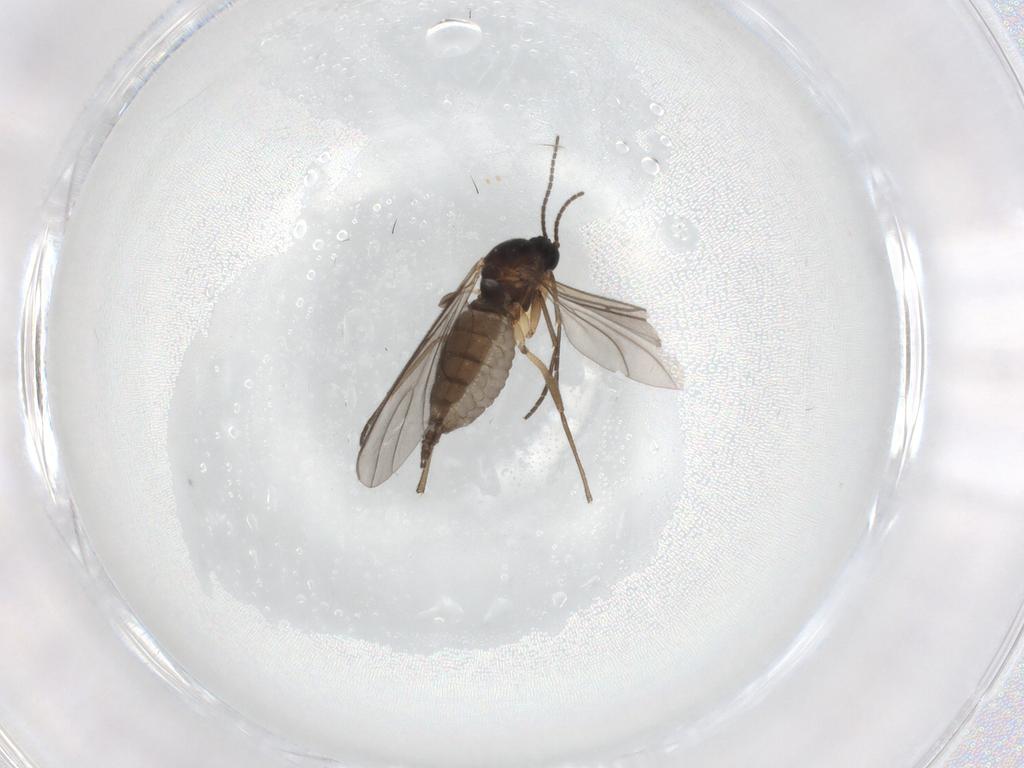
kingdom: Animalia
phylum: Arthropoda
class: Insecta
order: Diptera
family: Sciaridae
